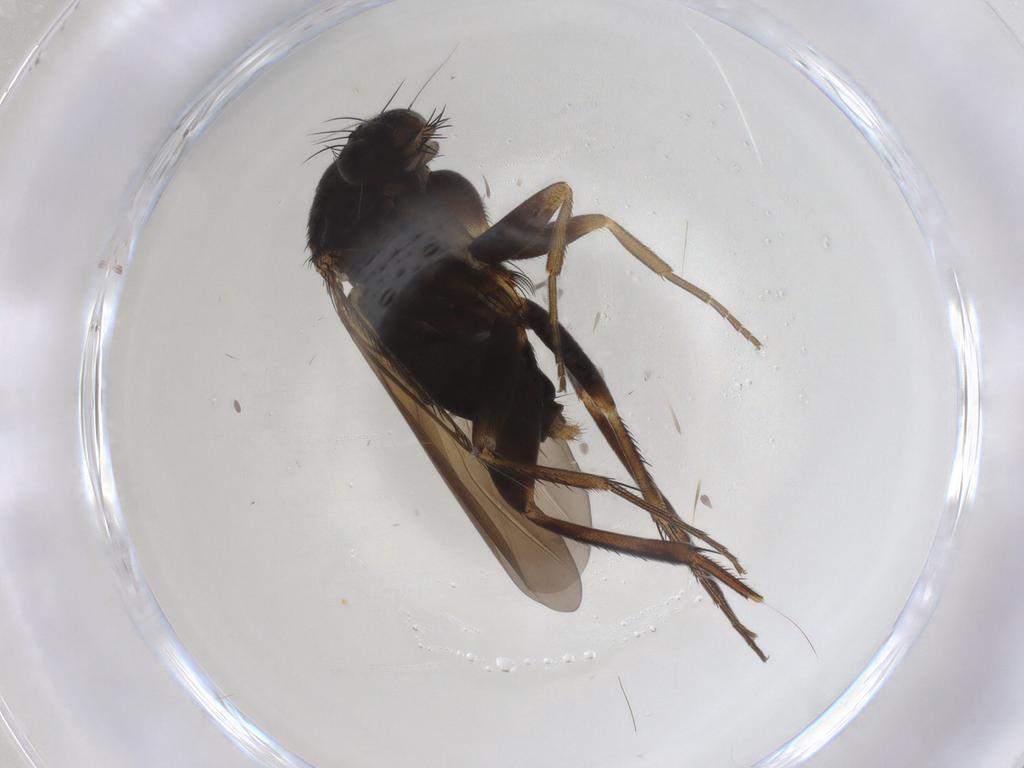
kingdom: Animalia
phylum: Arthropoda
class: Insecta
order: Diptera
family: Phoridae
